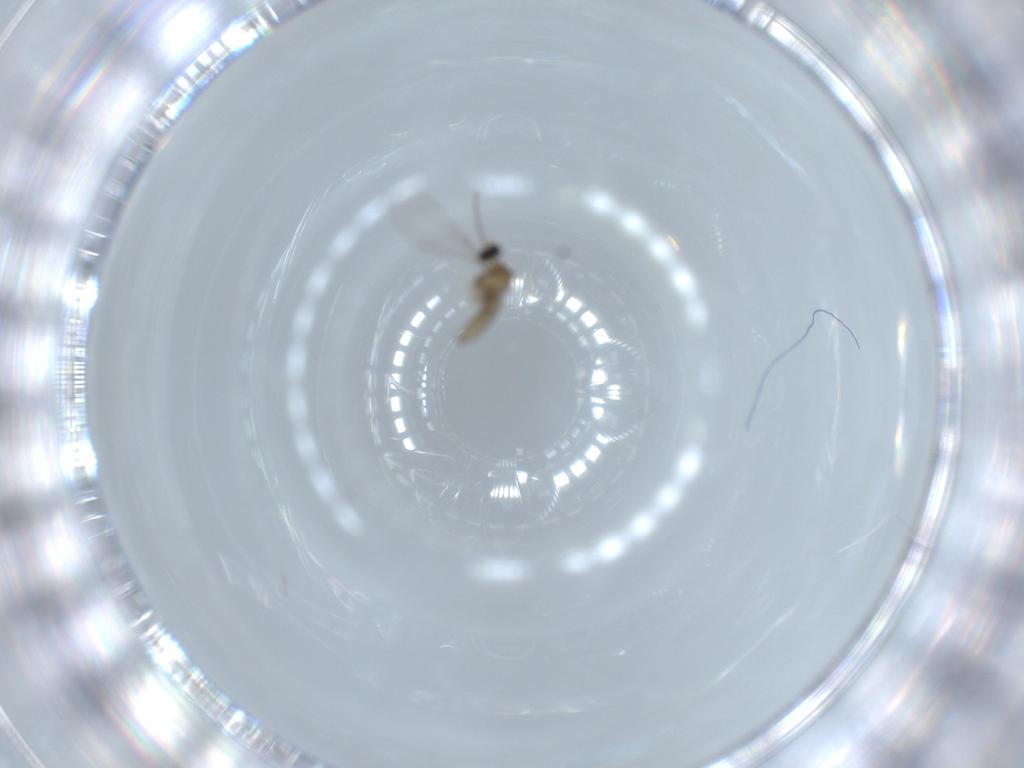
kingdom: Animalia
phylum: Arthropoda
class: Insecta
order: Diptera
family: Cecidomyiidae
